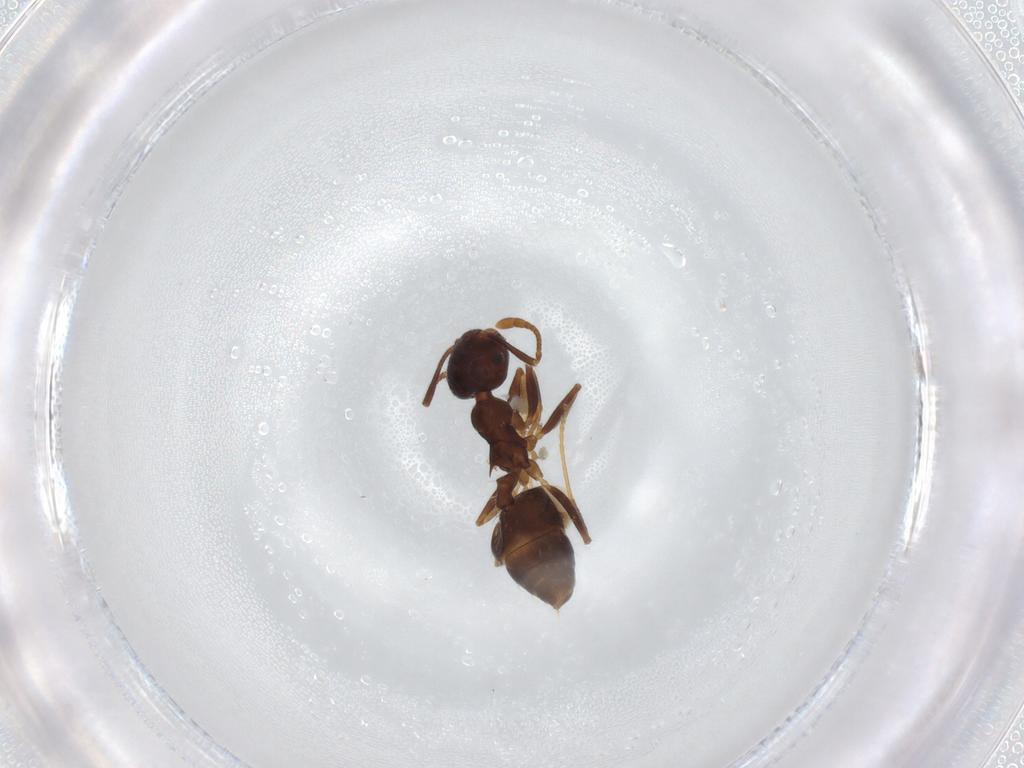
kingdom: Animalia
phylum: Arthropoda
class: Insecta
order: Hymenoptera
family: Formicidae
